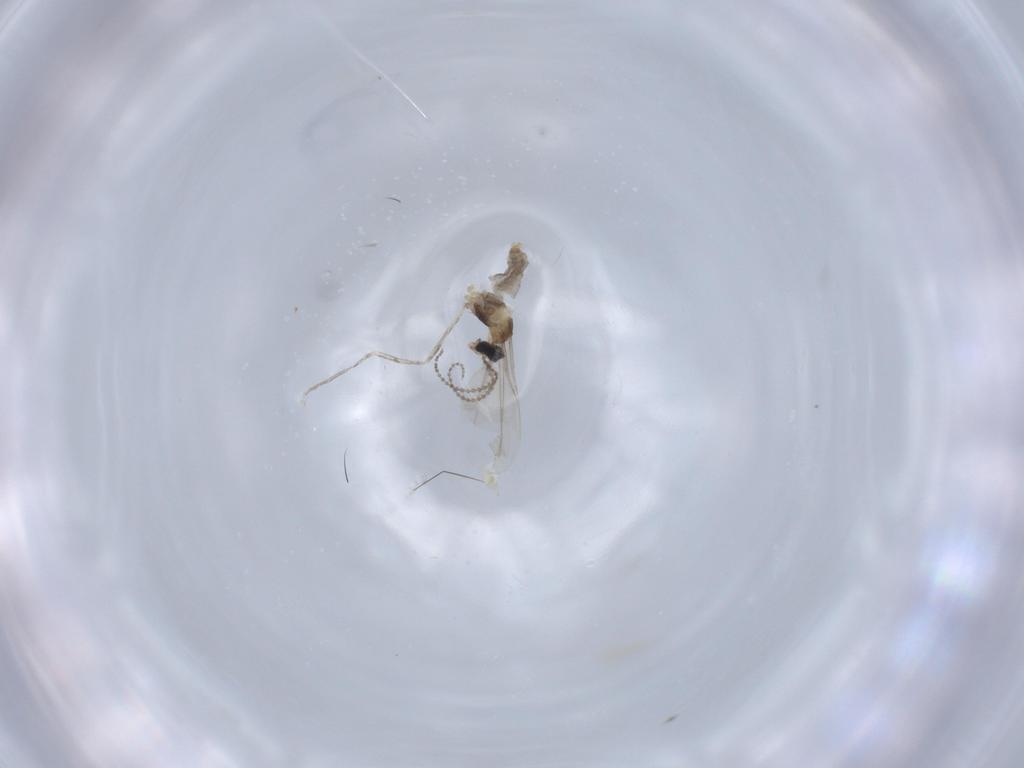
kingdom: Animalia
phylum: Arthropoda
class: Insecta
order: Diptera
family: Cecidomyiidae
